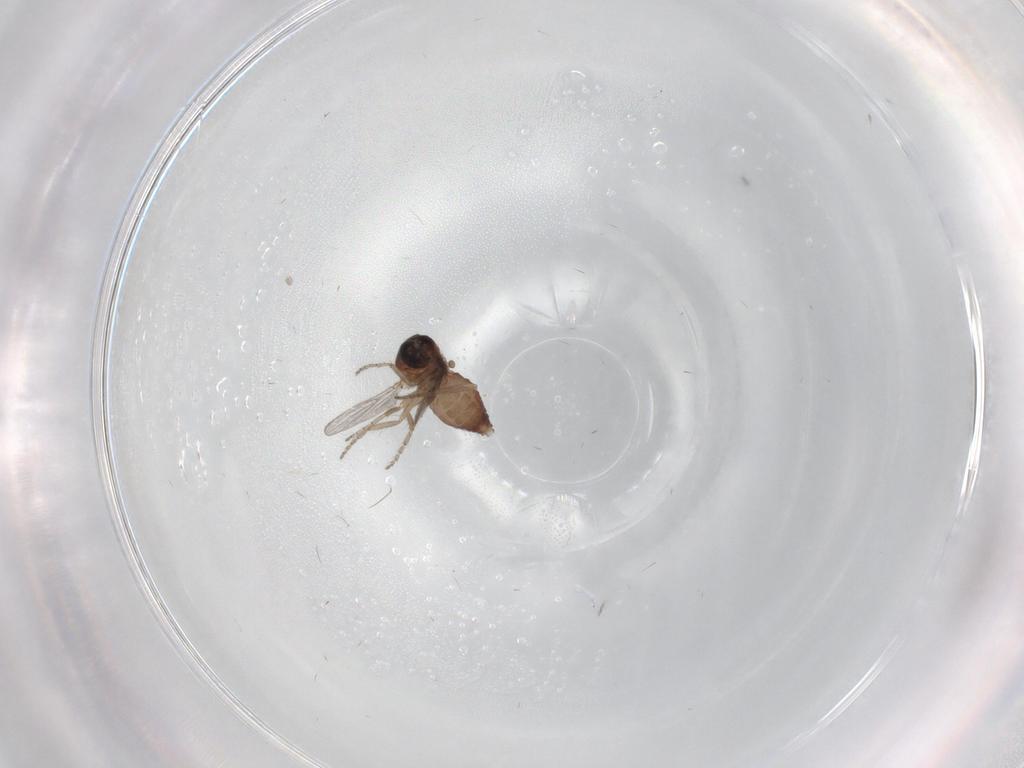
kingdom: Animalia
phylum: Arthropoda
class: Insecta
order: Diptera
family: Ceratopogonidae
